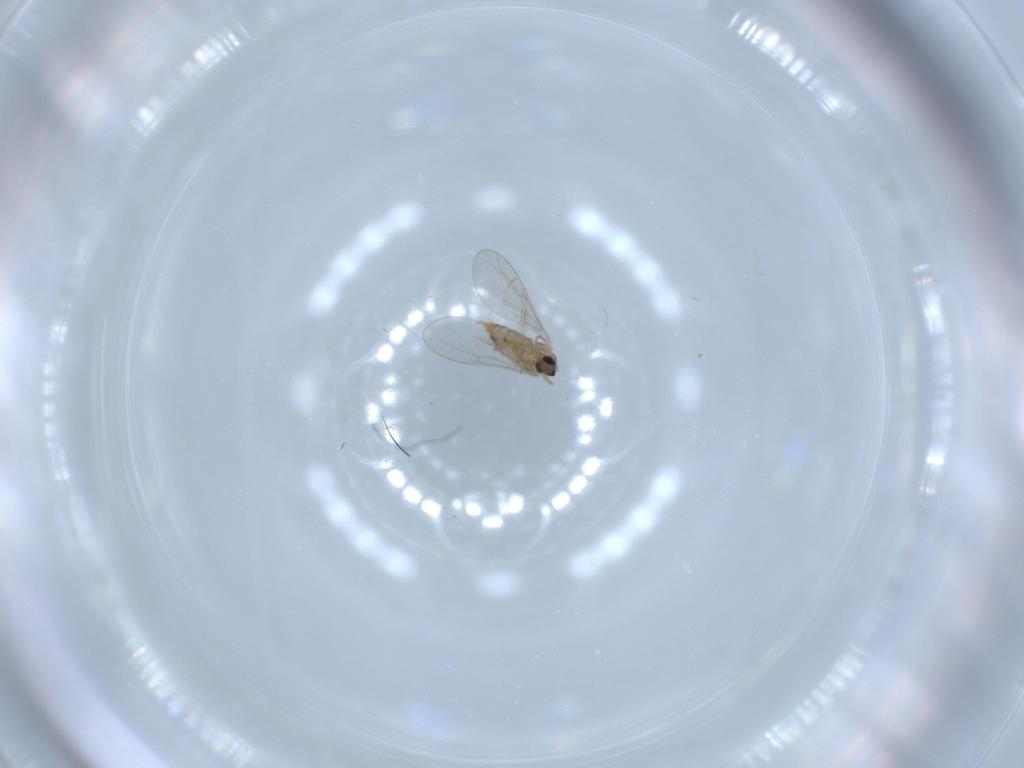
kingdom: Animalia
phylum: Arthropoda
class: Insecta
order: Diptera
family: Cecidomyiidae
